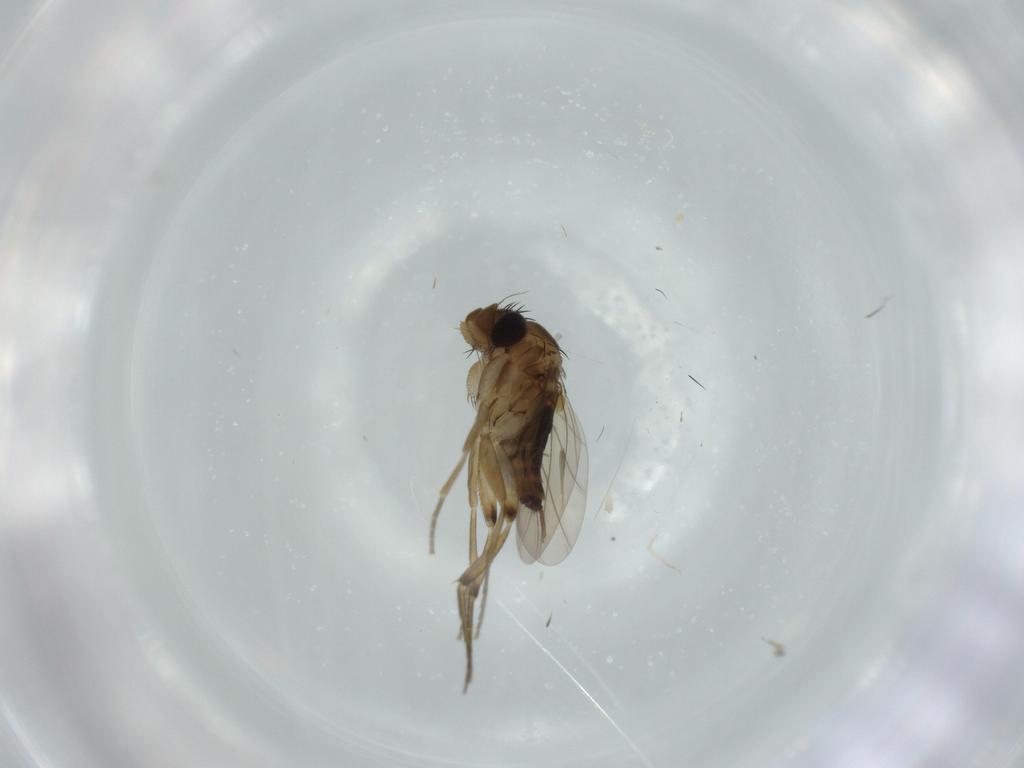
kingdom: Animalia
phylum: Arthropoda
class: Insecta
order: Diptera
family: Phoridae
